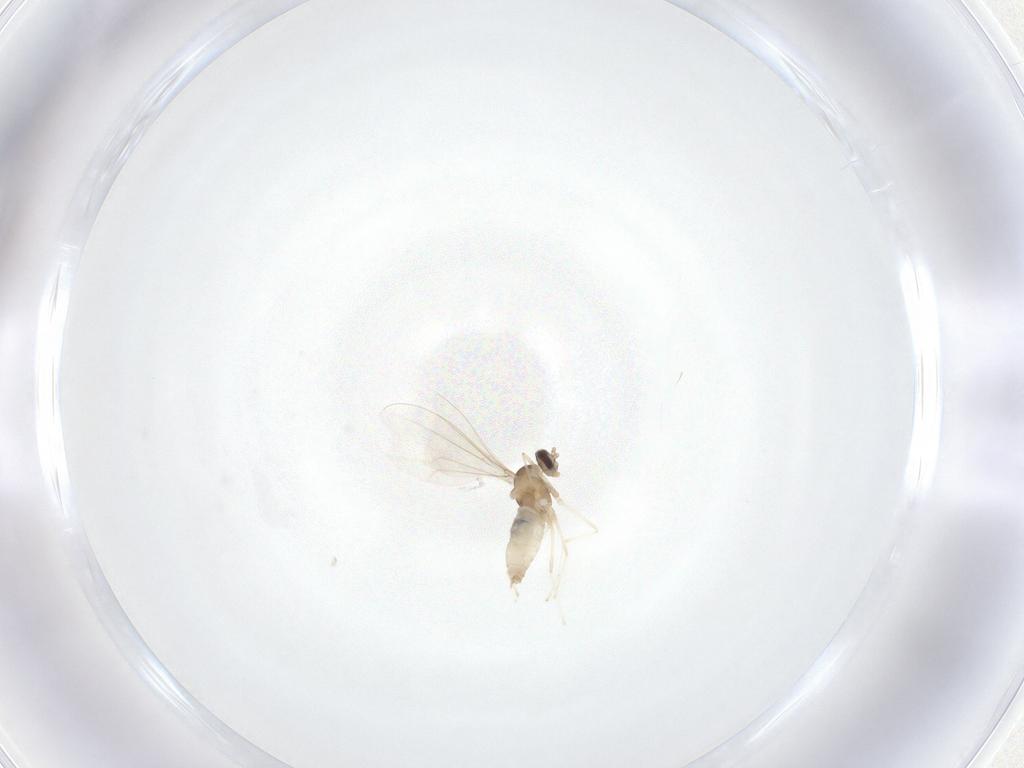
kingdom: Animalia
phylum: Arthropoda
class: Insecta
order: Diptera
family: Cecidomyiidae
